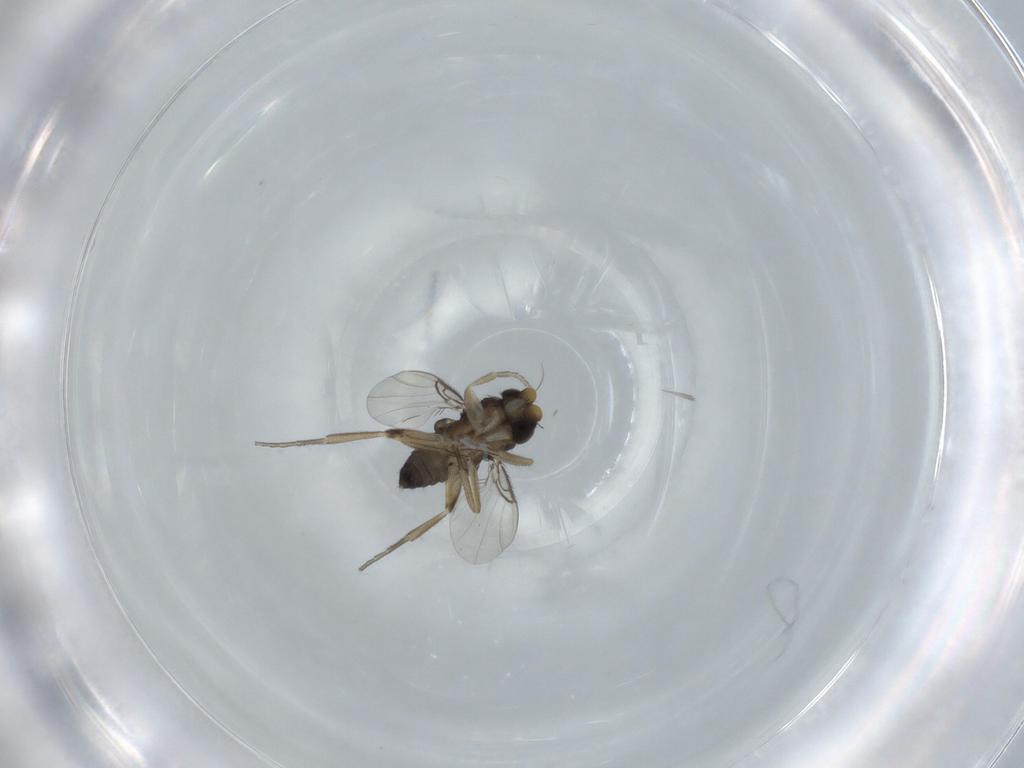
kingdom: Animalia
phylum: Arthropoda
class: Insecta
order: Diptera
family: Phoridae
